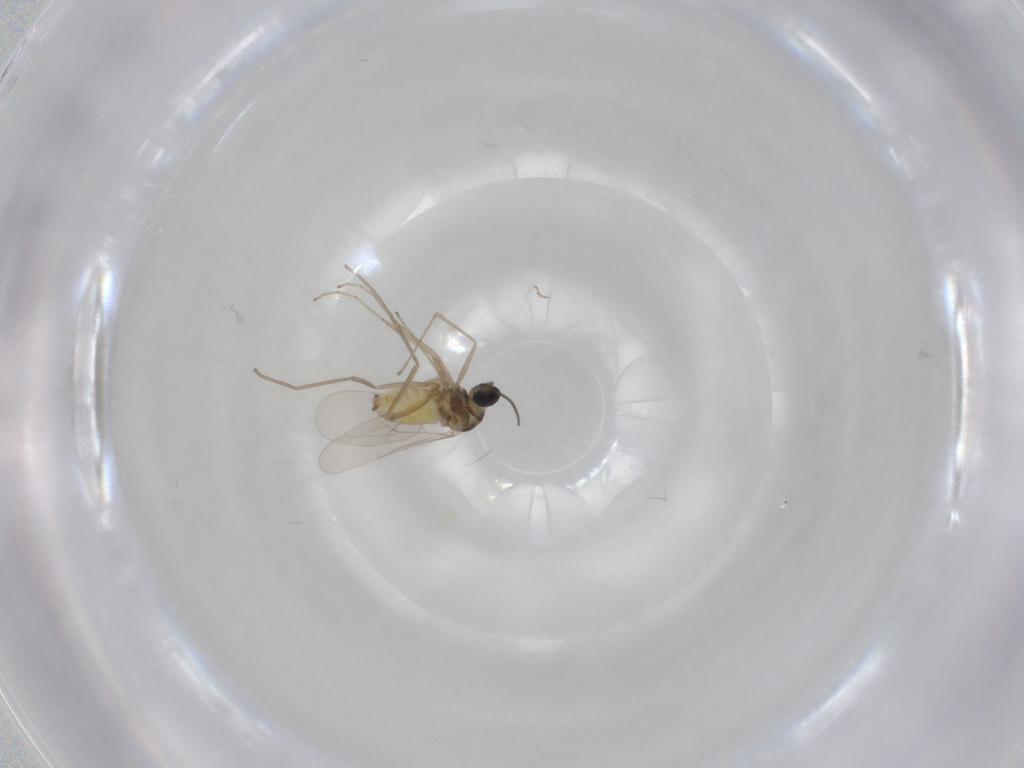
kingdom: Animalia
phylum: Arthropoda
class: Insecta
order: Diptera
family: Cecidomyiidae
